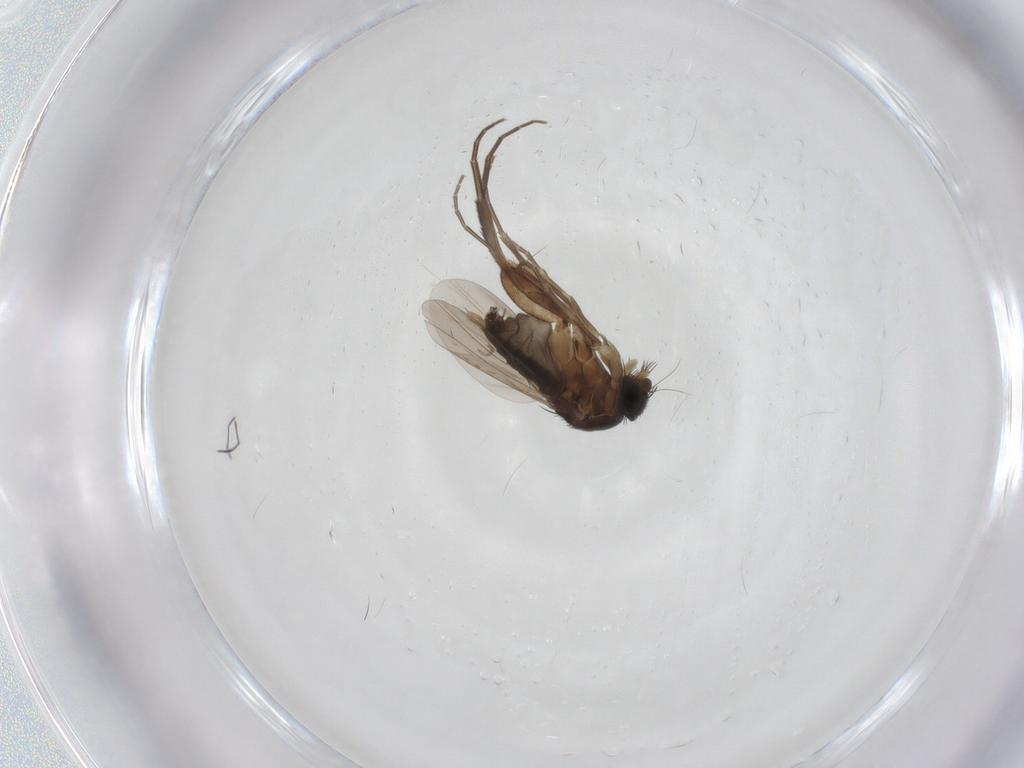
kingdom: Animalia
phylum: Arthropoda
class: Insecta
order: Diptera
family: Phoridae
